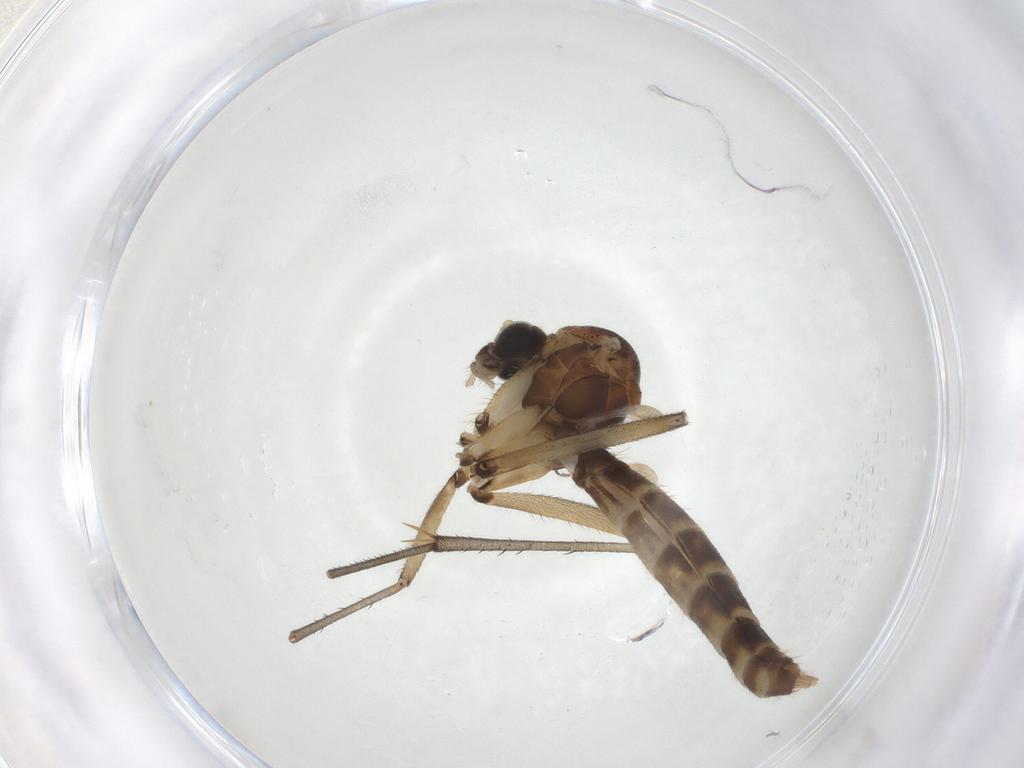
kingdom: Animalia
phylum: Arthropoda
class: Insecta
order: Diptera
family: Mycetophilidae
